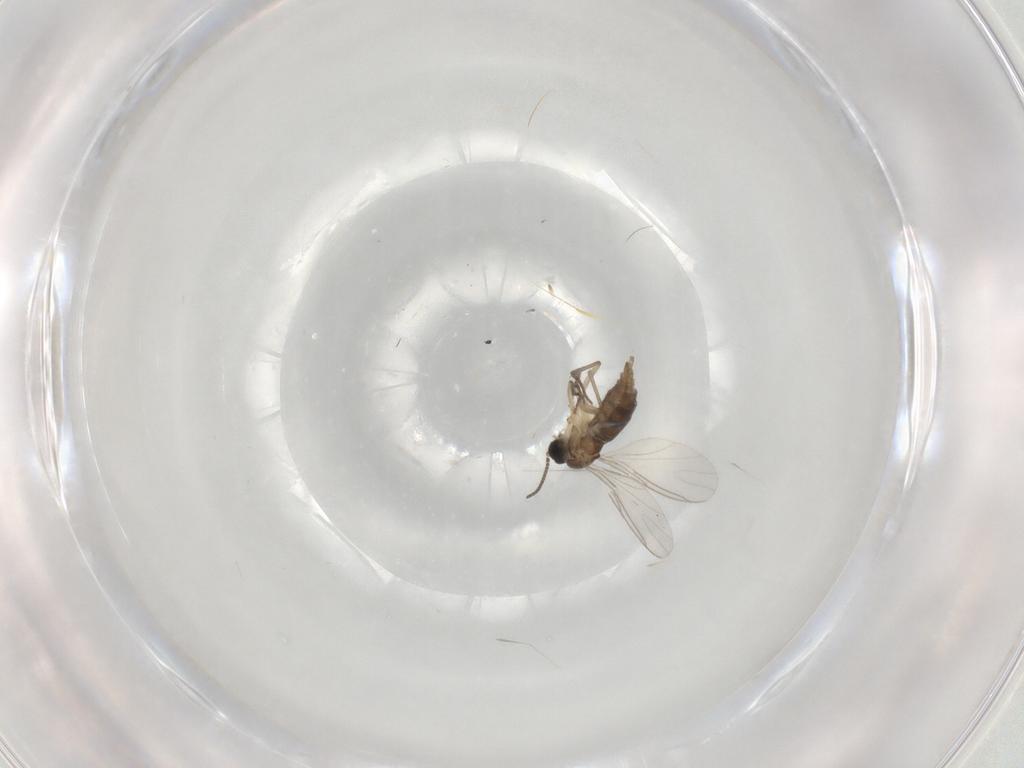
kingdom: Animalia
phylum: Arthropoda
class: Insecta
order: Diptera
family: Sciaridae
